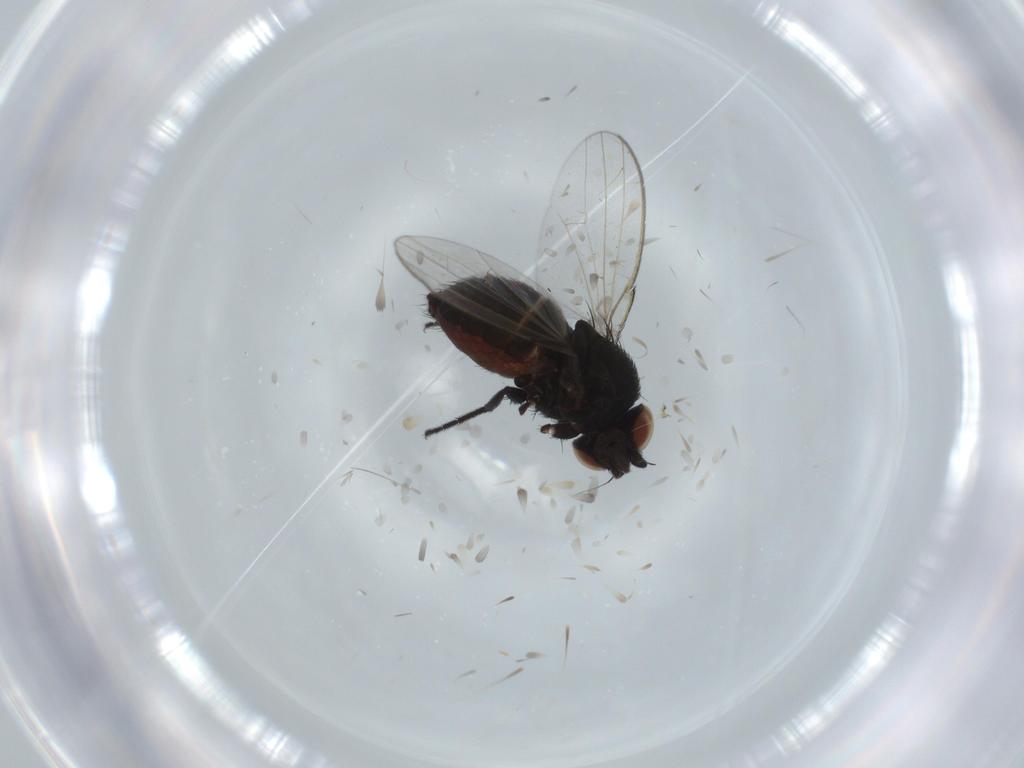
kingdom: Animalia
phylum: Arthropoda
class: Insecta
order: Diptera
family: Milichiidae
